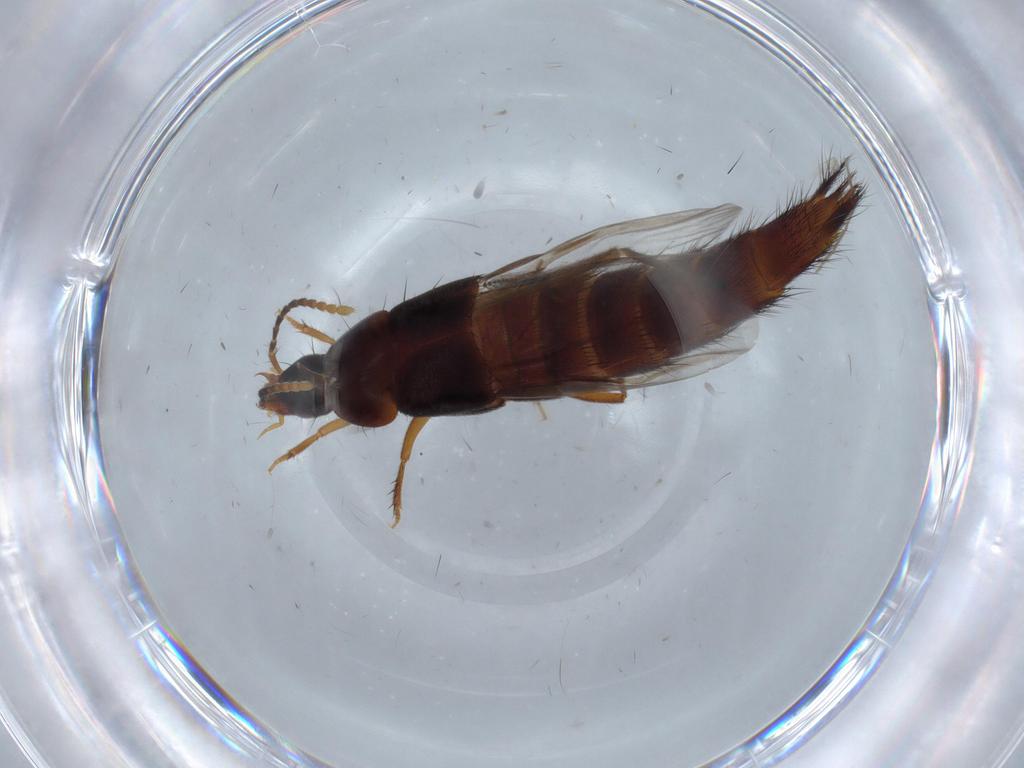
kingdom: Animalia
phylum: Arthropoda
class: Insecta
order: Coleoptera
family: Staphylinidae
